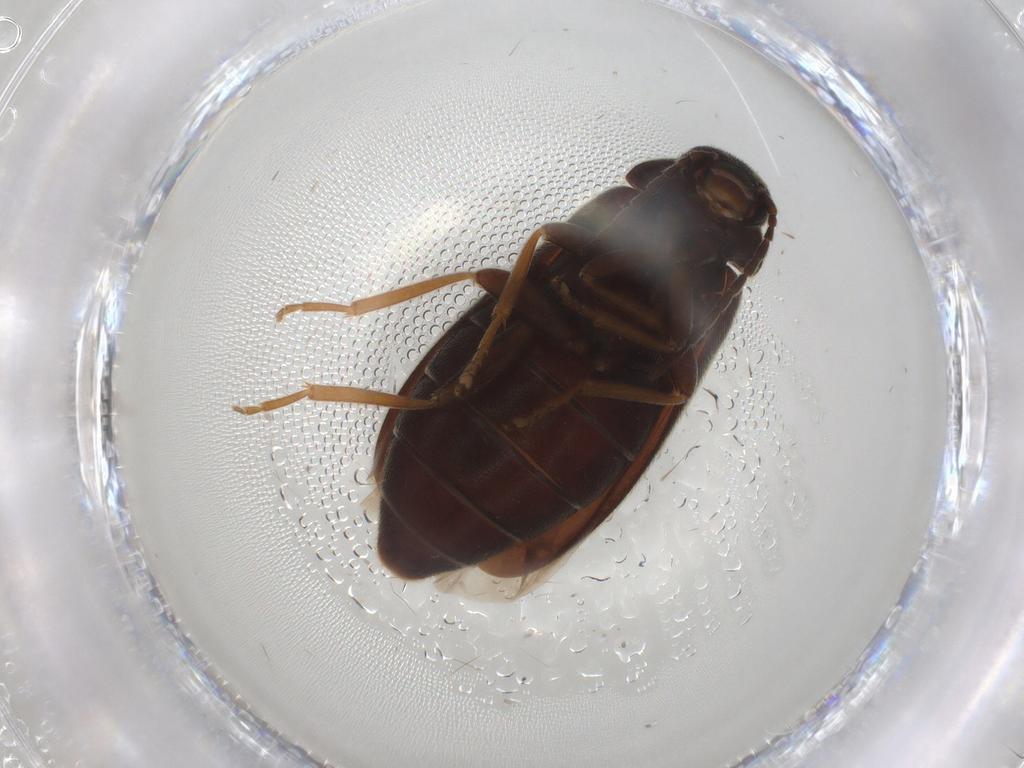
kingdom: Animalia
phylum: Arthropoda
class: Insecta
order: Coleoptera
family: Scraptiidae
